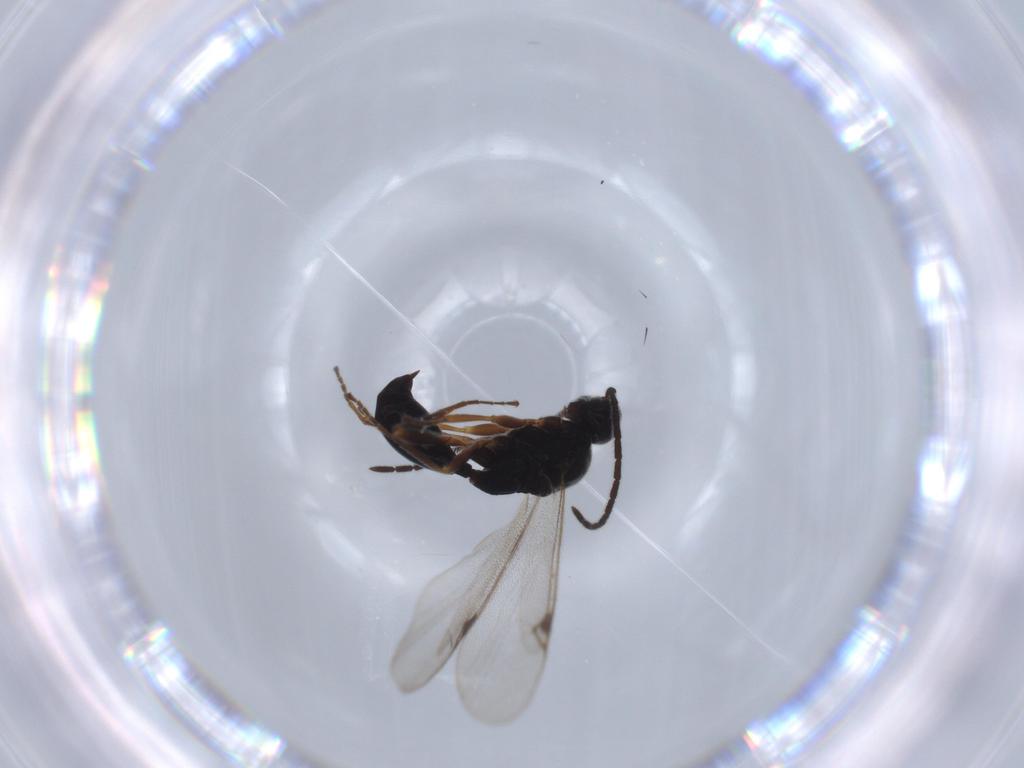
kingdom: Animalia
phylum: Arthropoda
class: Insecta
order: Hymenoptera
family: Proctotrupidae
